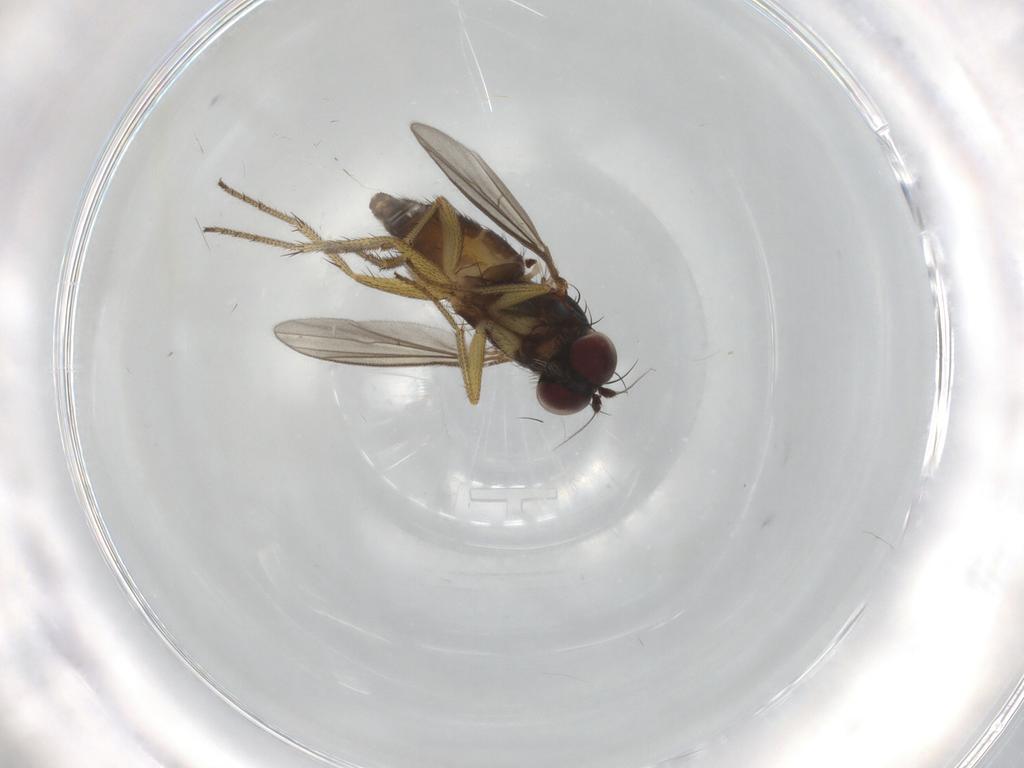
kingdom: Animalia
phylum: Arthropoda
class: Insecta
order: Diptera
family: Dolichopodidae
